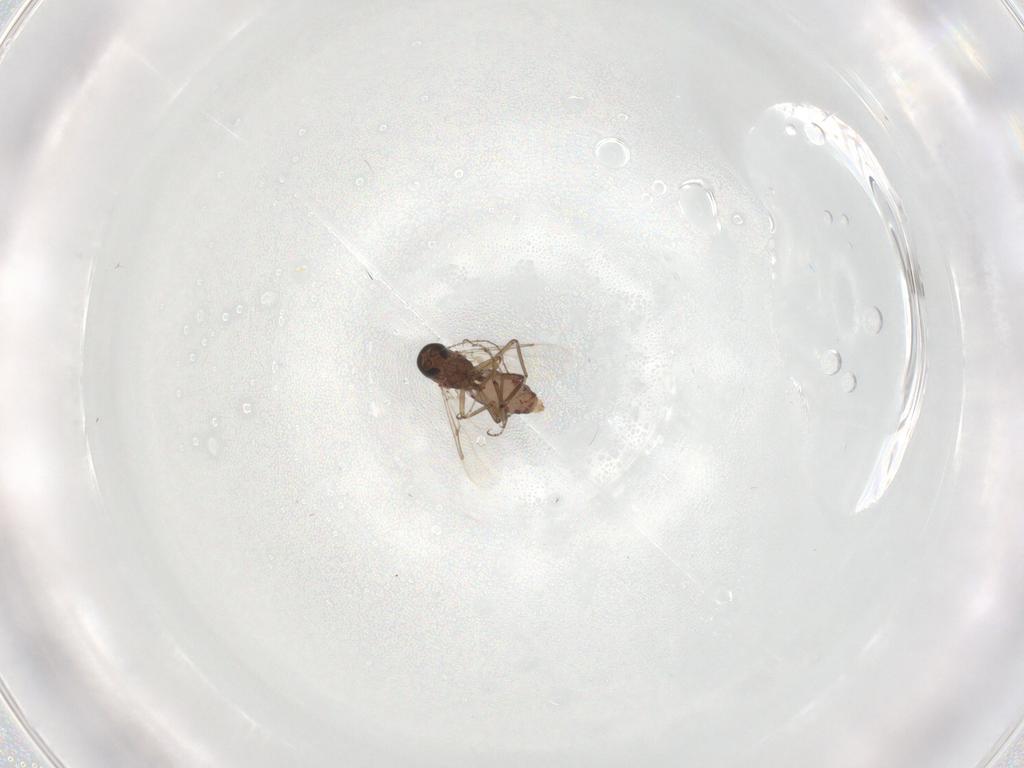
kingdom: Animalia
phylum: Arthropoda
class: Insecta
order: Diptera
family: Ceratopogonidae
